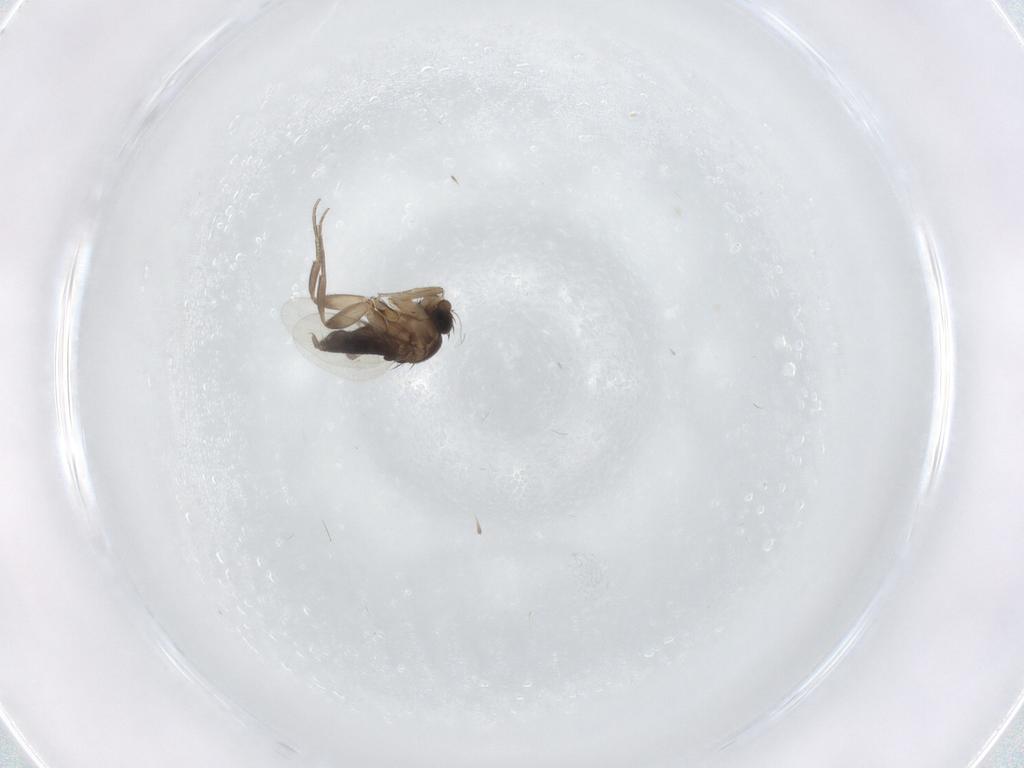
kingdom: Animalia
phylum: Arthropoda
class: Insecta
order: Diptera
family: Phoridae
